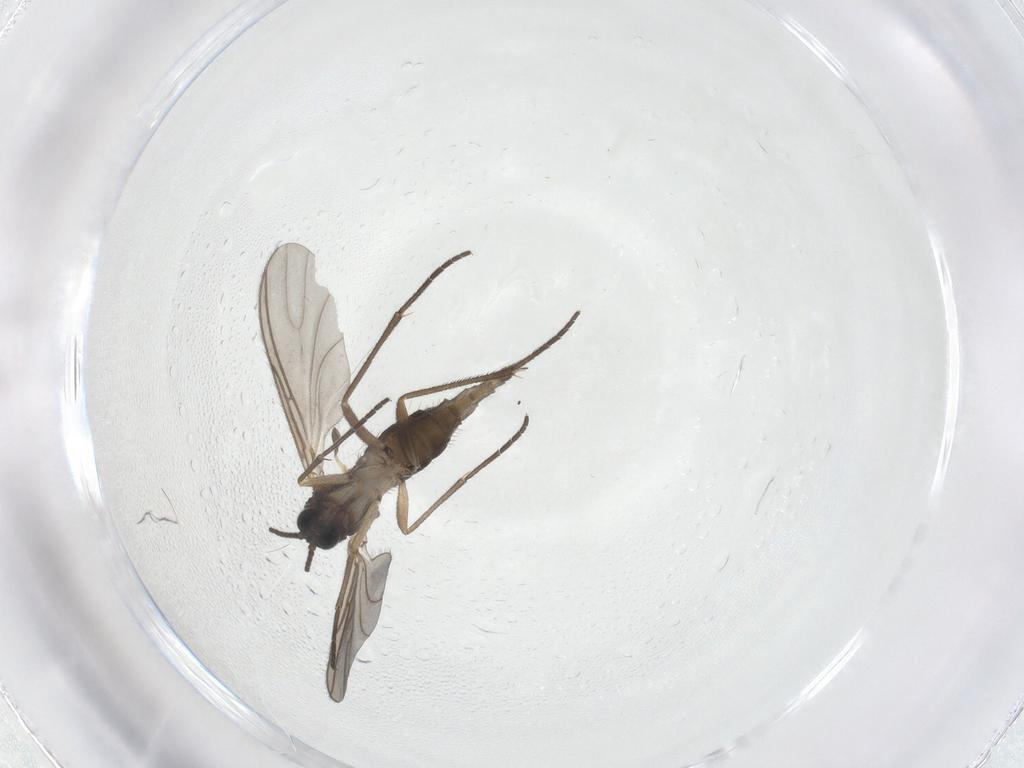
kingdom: Animalia
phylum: Arthropoda
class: Insecta
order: Diptera
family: Sciaridae
